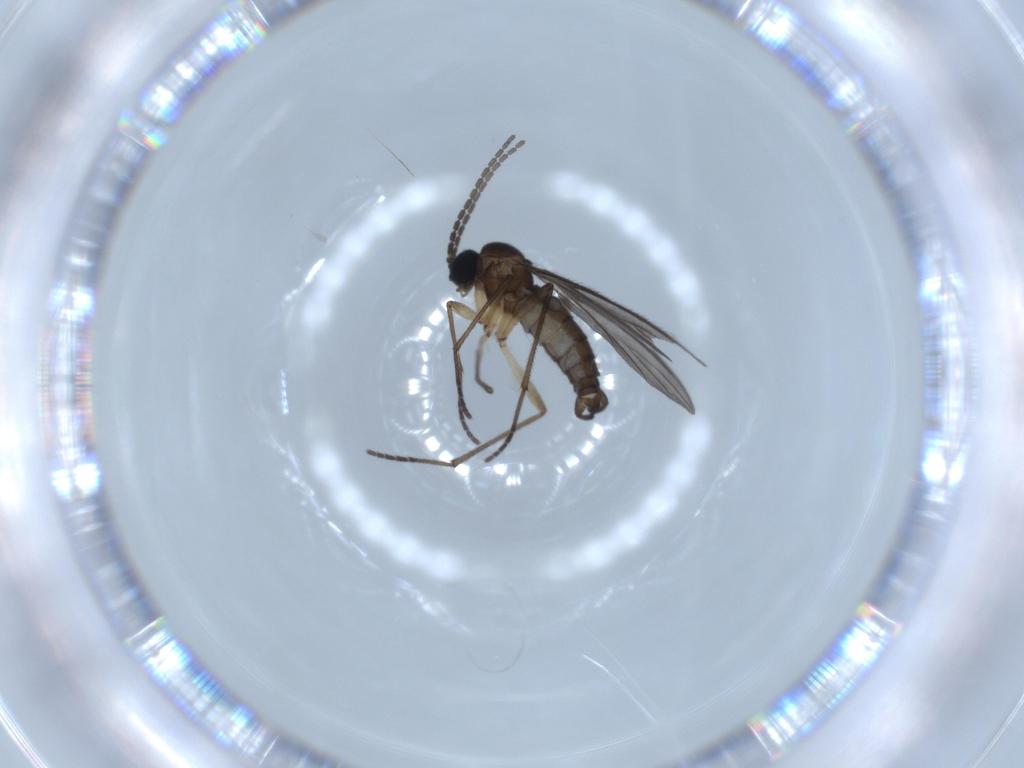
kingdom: Animalia
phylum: Arthropoda
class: Insecta
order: Diptera
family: Sciaridae
